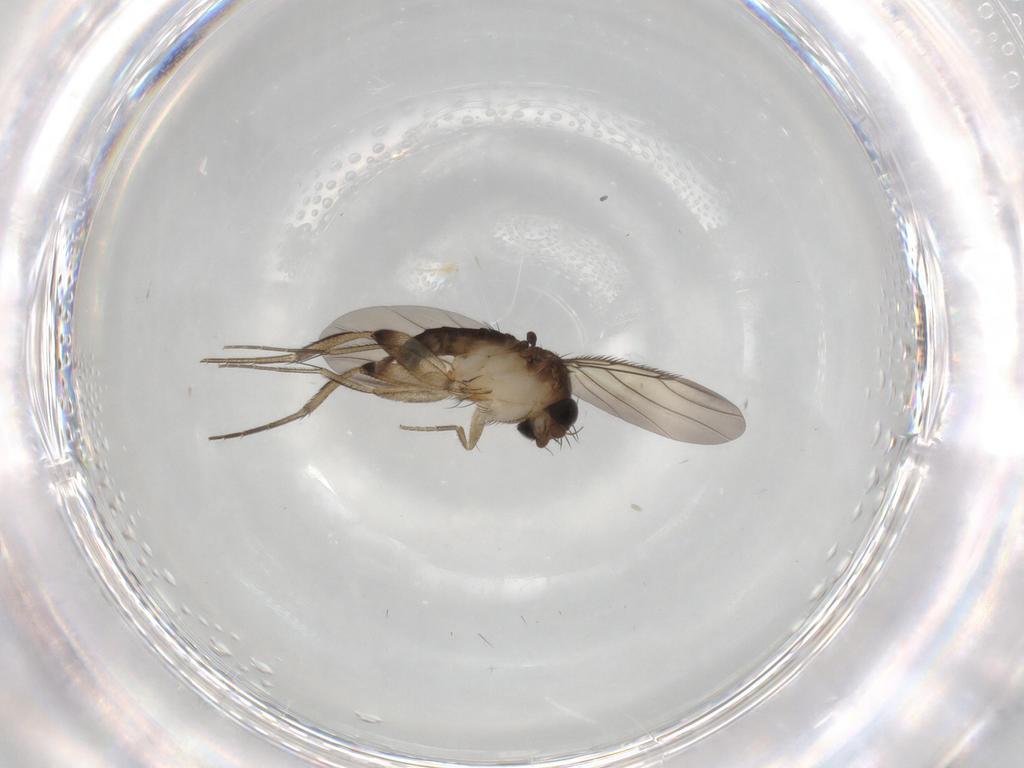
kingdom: Animalia
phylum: Arthropoda
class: Insecta
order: Diptera
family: Phoridae
